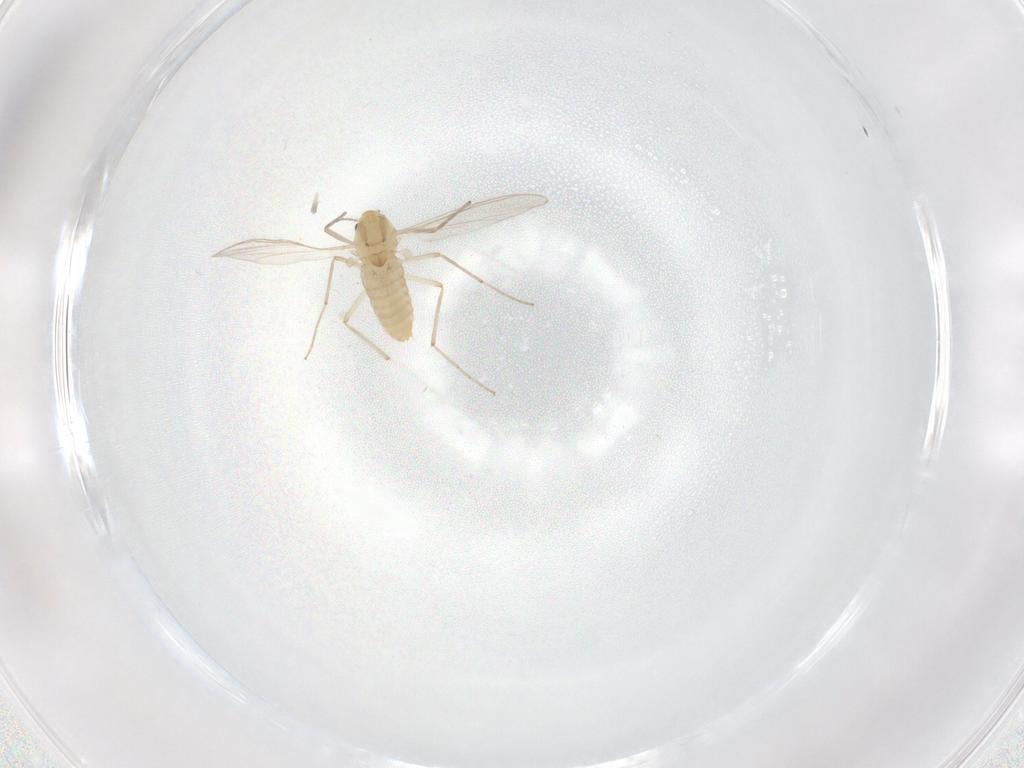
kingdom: Animalia
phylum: Arthropoda
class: Insecta
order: Diptera
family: Chironomidae
